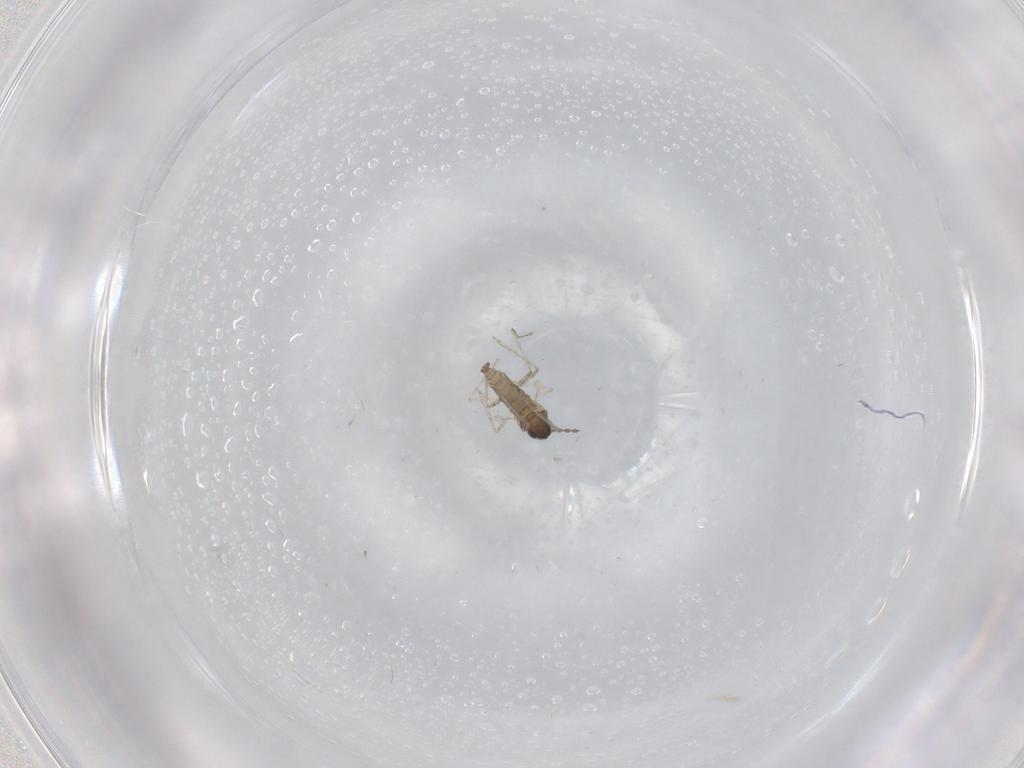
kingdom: Animalia
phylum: Arthropoda
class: Insecta
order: Diptera
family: Cecidomyiidae
